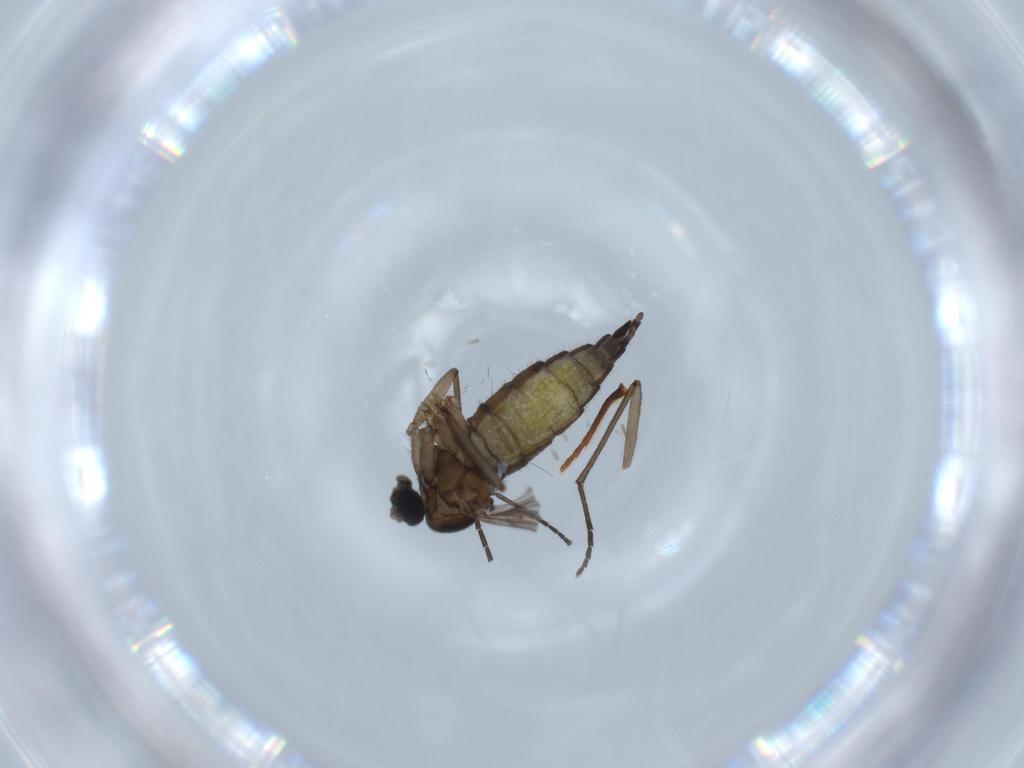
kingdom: Animalia
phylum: Arthropoda
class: Insecta
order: Diptera
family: Sciaridae
